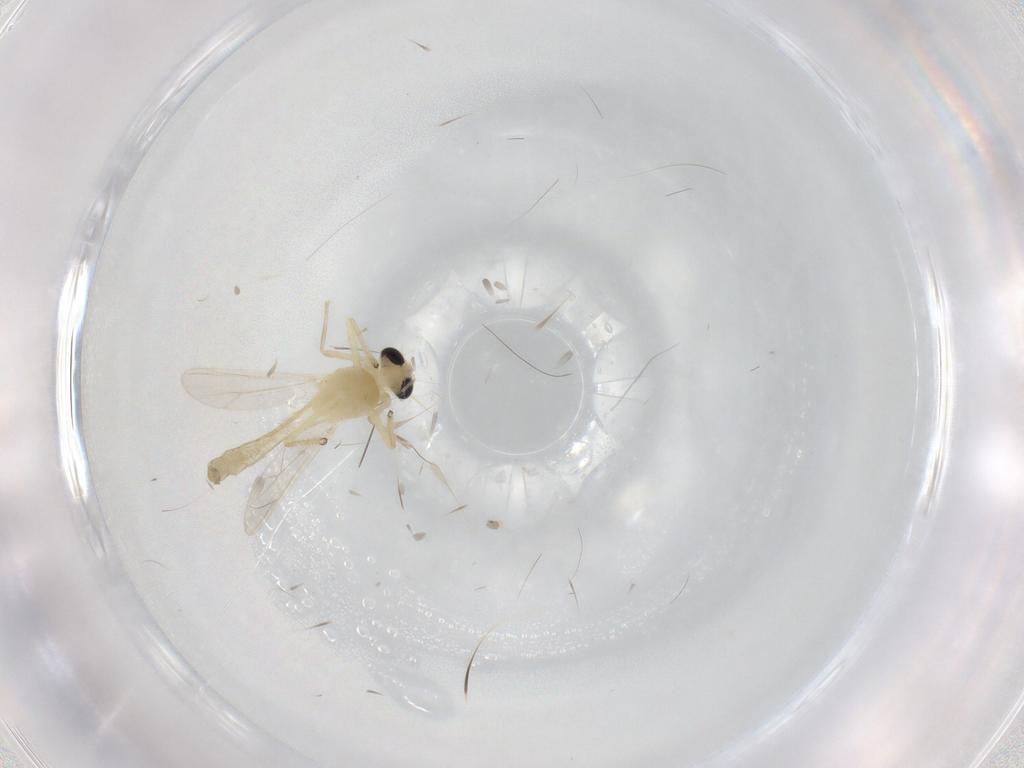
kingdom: Animalia
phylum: Arthropoda
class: Insecta
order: Diptera
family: Chironomidae
